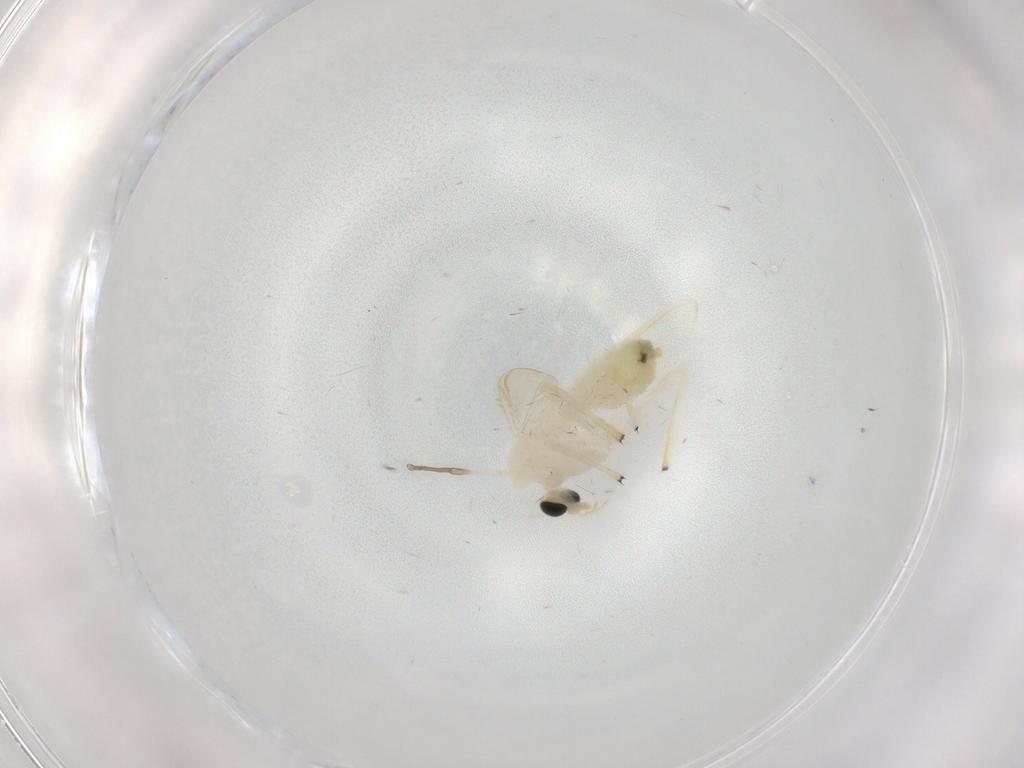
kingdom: Animalia
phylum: Arthropoda
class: Insecta
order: Diptera
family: Chironomidae
